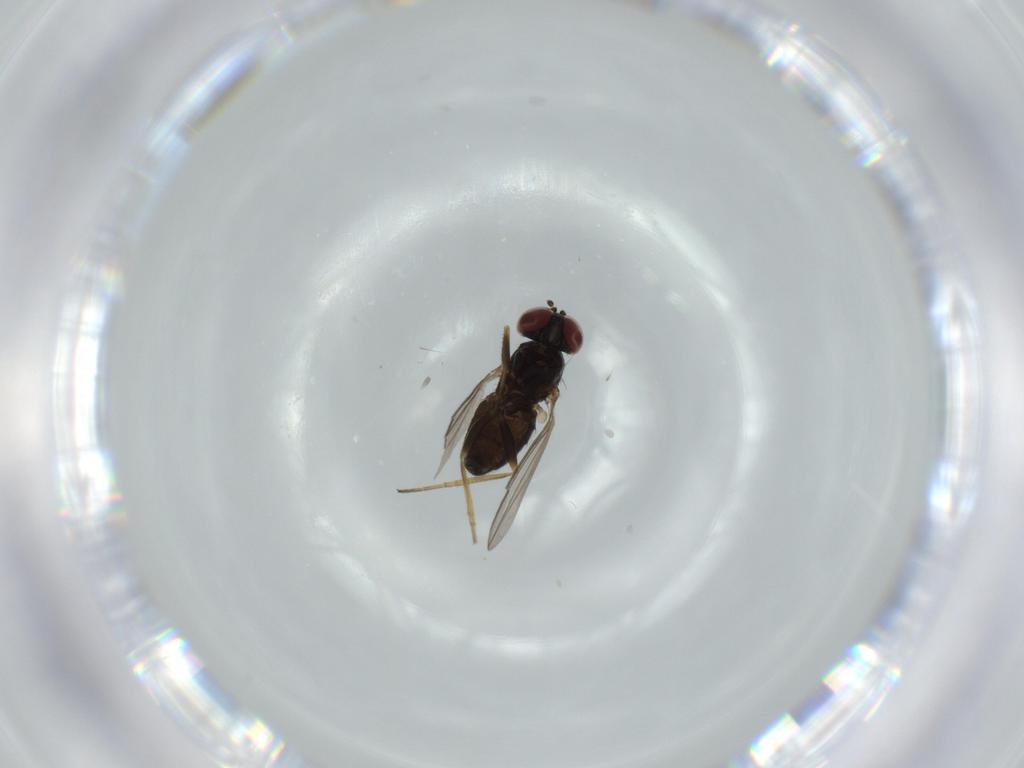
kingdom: Animalia
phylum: Arthropoda
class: Insecta
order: Diptera
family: Dolichopodidae
